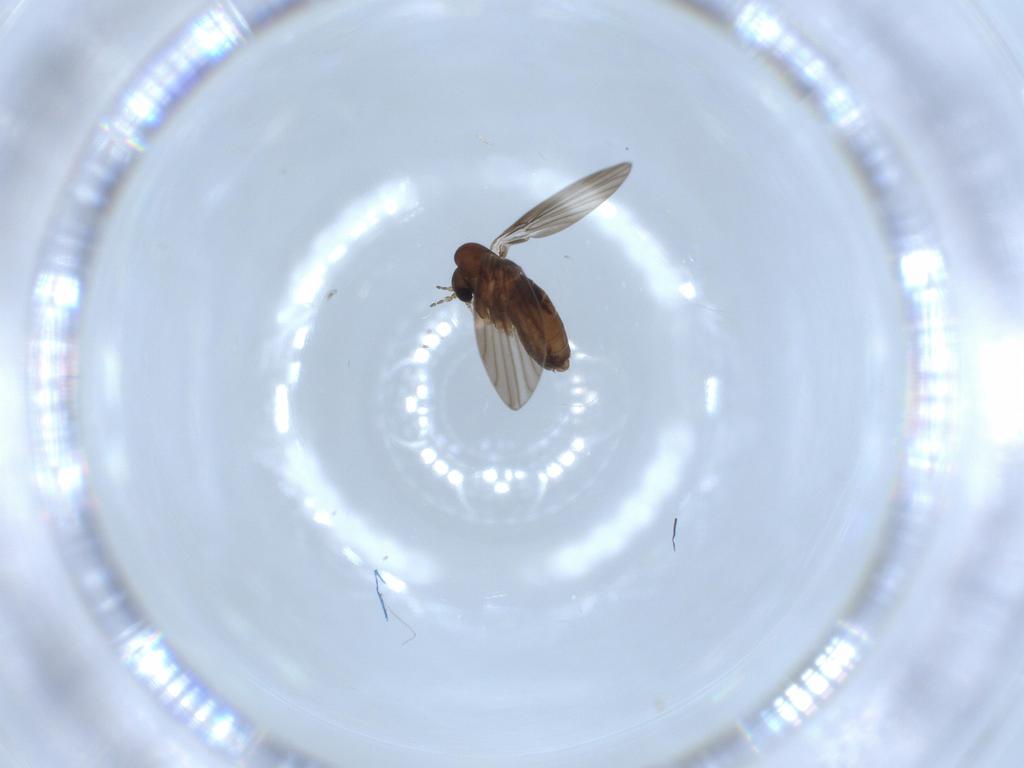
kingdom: Animalia
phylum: Arthropoda
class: Insecta
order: Diptera
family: Psychodidae
